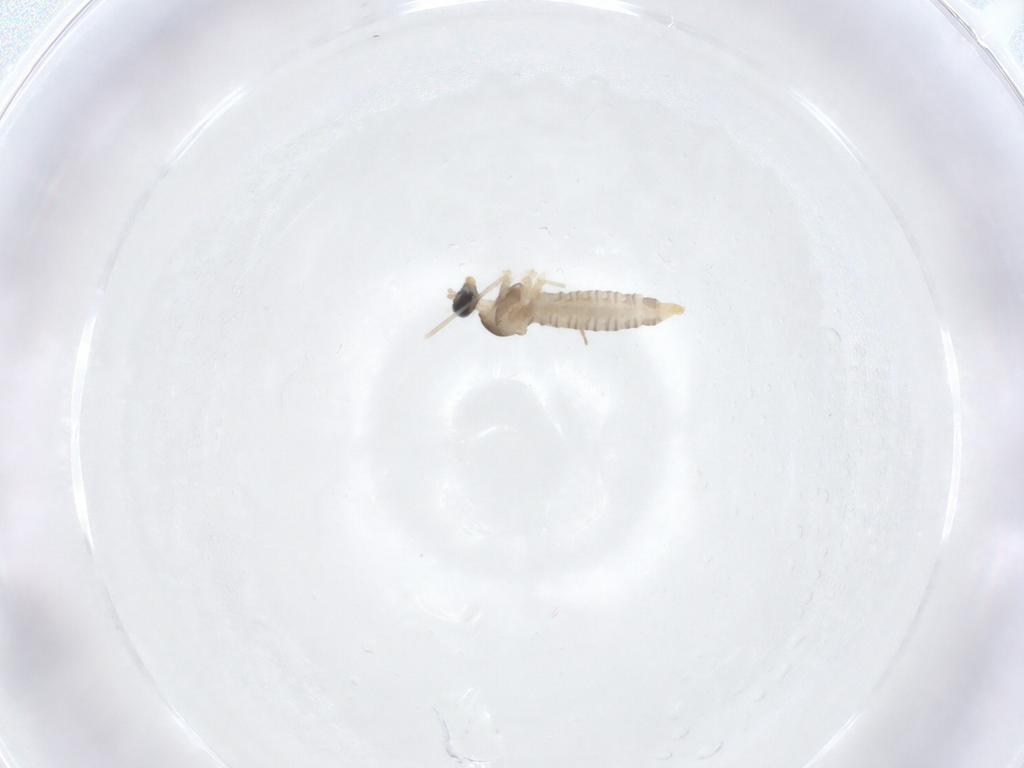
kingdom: Animalia
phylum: Arthropoda
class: Insecta
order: Diptera
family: Cecidomyiidae
